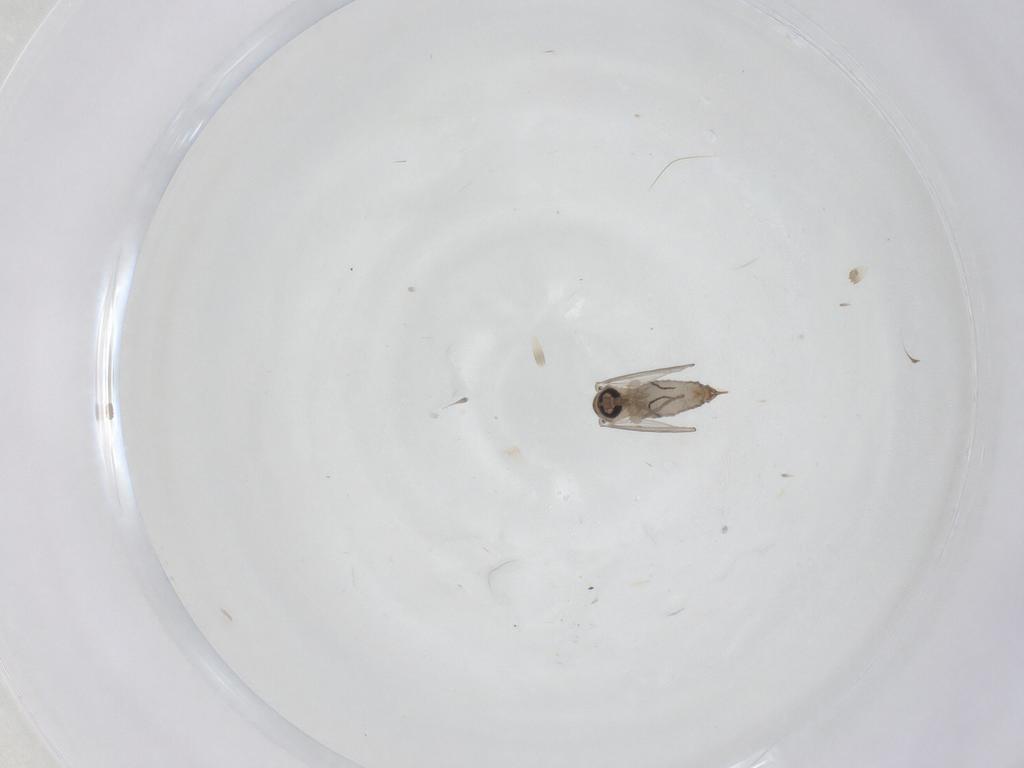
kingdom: Animalia
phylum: Arthropoda
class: Insecta
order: Diptera
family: Psychodidae
